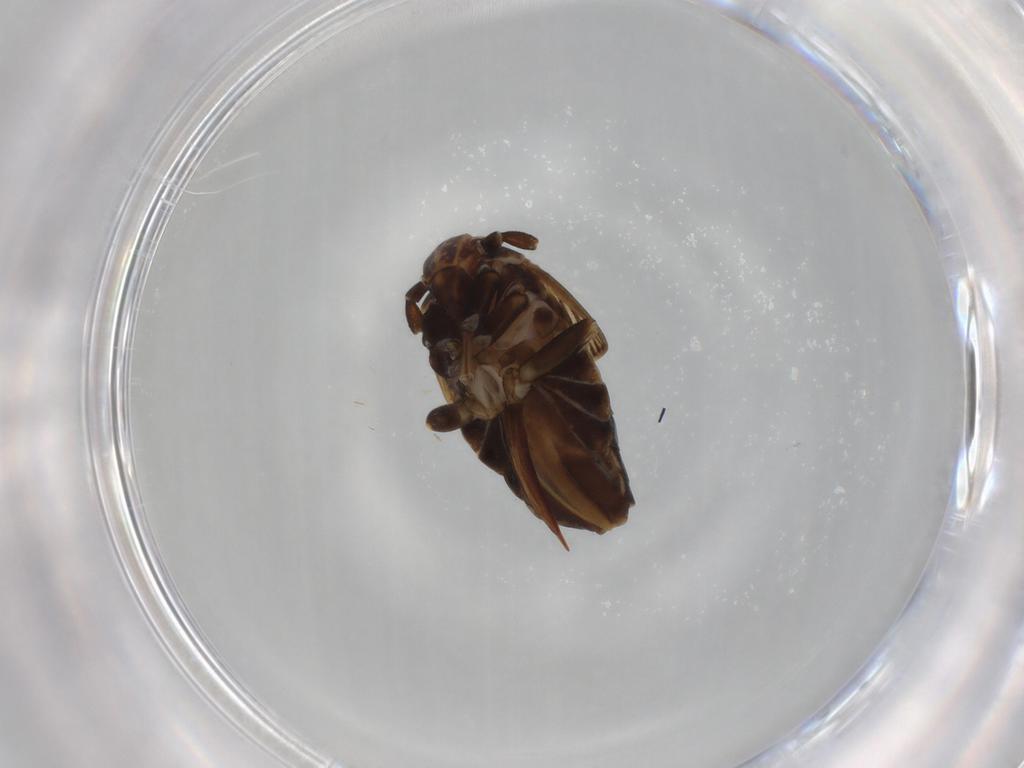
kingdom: Animalia
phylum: Arthropoda
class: Insecta
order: Hemiptera
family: Delphacidae
